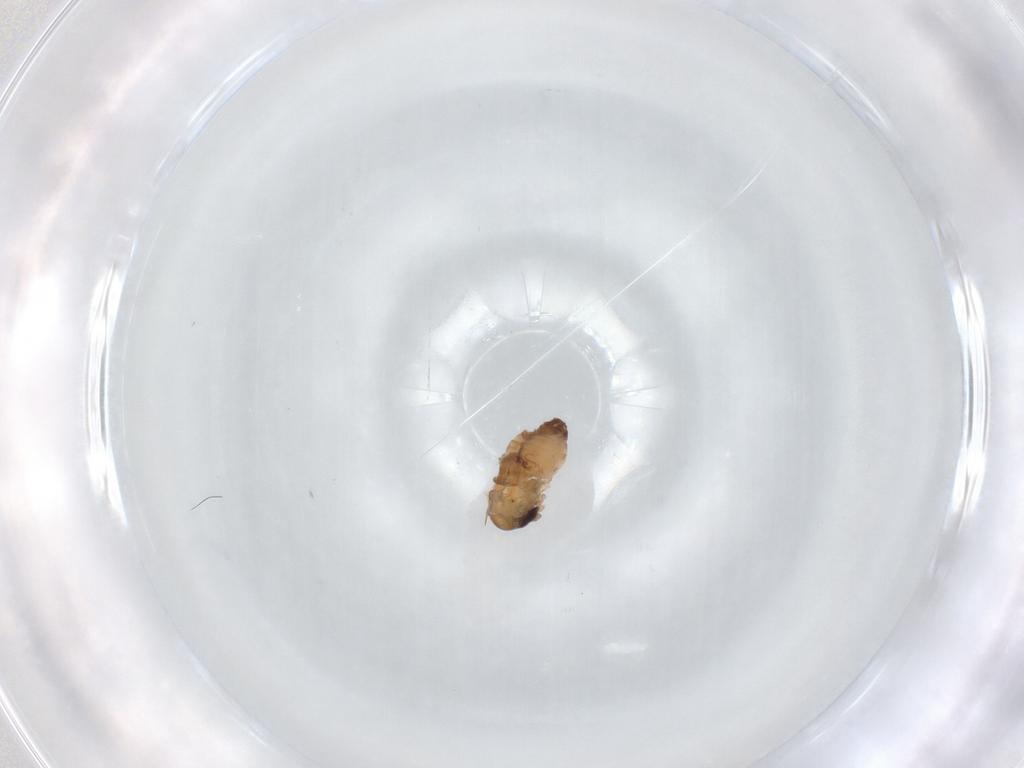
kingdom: Animalia
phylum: Arthropoda
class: Insecta
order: Diptera
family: Psychodidae
